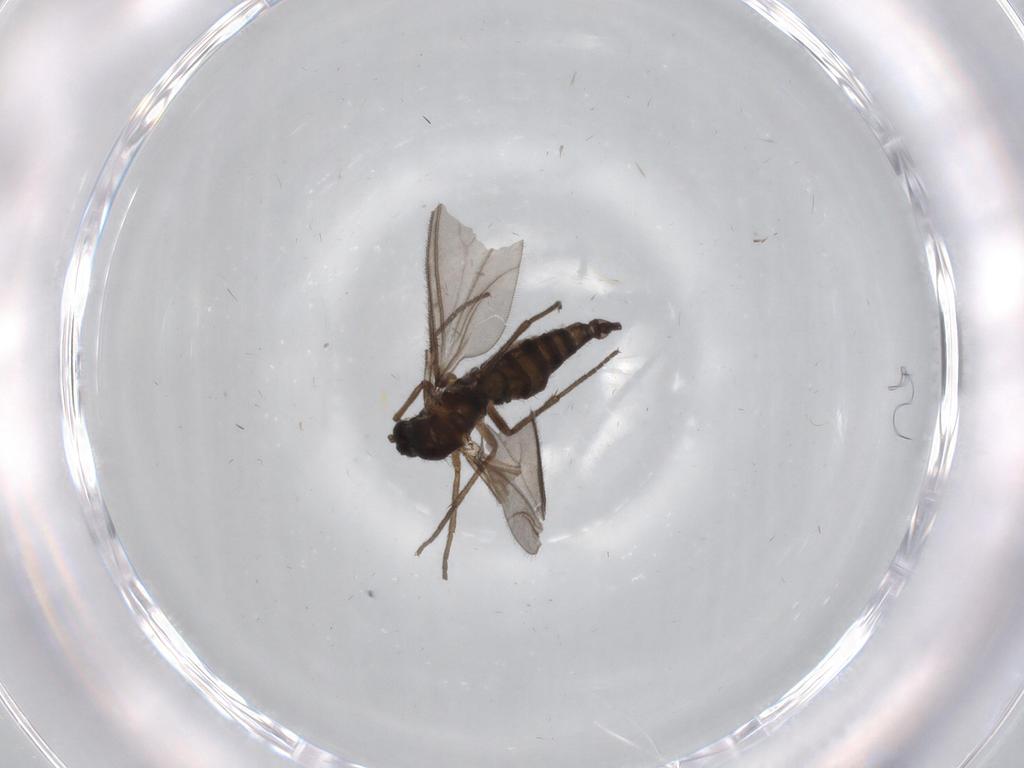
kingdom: Animalia
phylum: Arthropoda
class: Insecta
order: Diptera
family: Sciaridae
